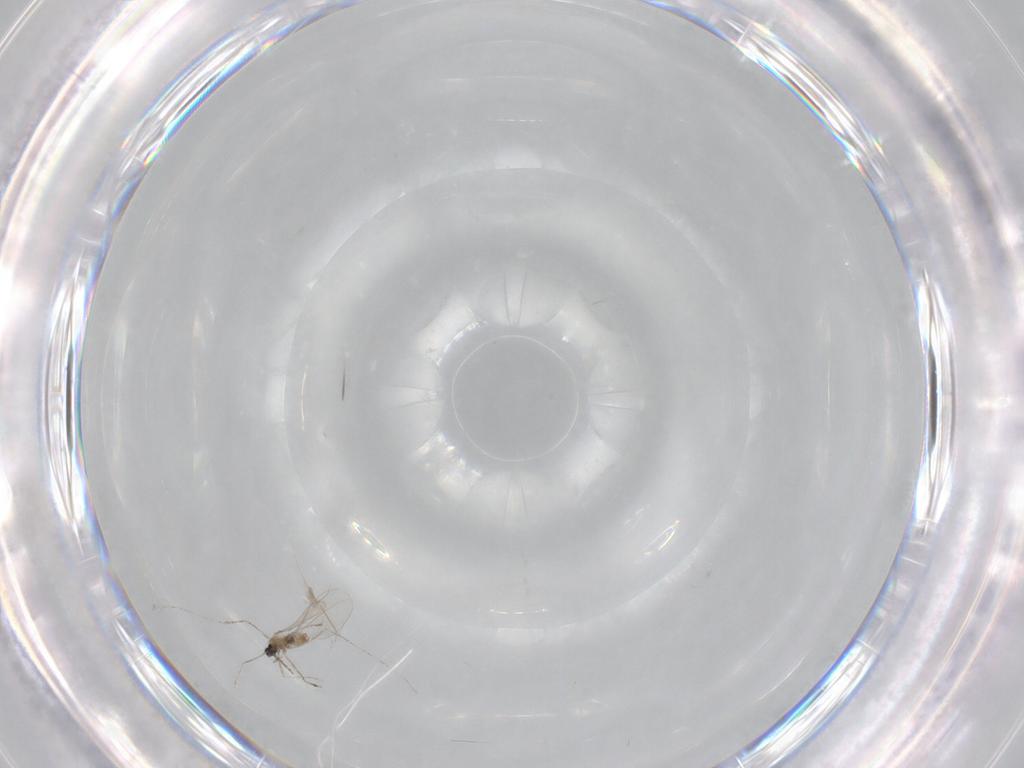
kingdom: Animalia
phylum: Arthropoda
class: Insecta
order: Diptera
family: Cecidomyiidae
